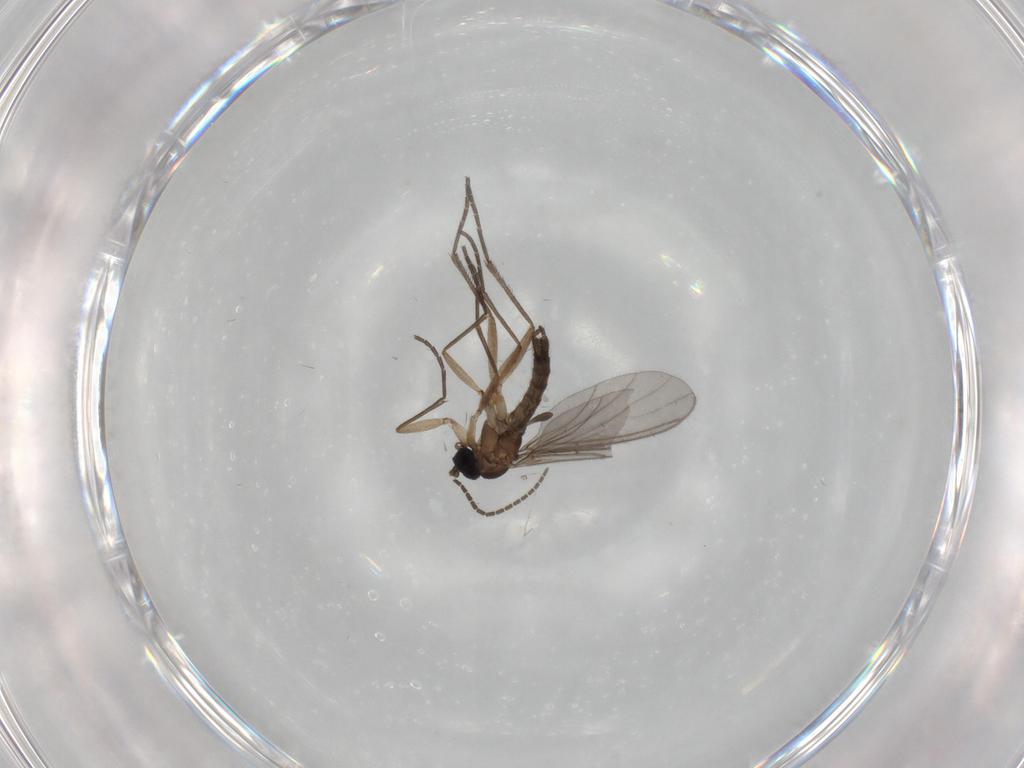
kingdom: Animalia
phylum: Arthropoda
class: Insecta
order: Diptera
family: Sciaridae
